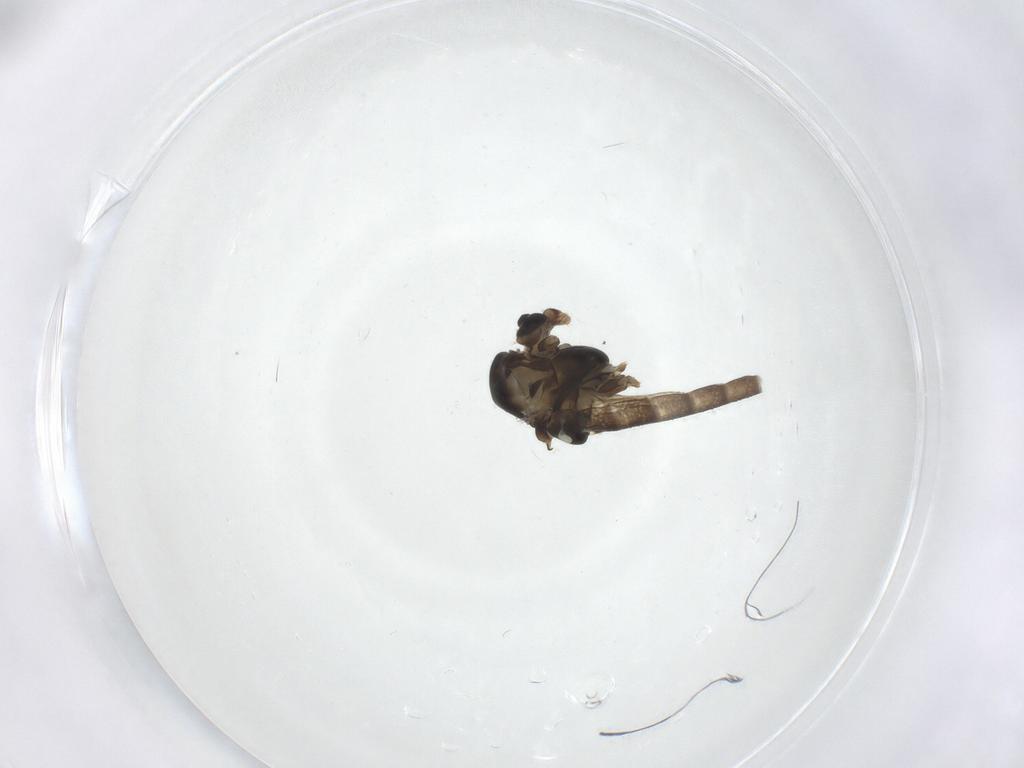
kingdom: Animalia
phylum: Arthropoda
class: Insecta
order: Diptera
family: Chironomidae
